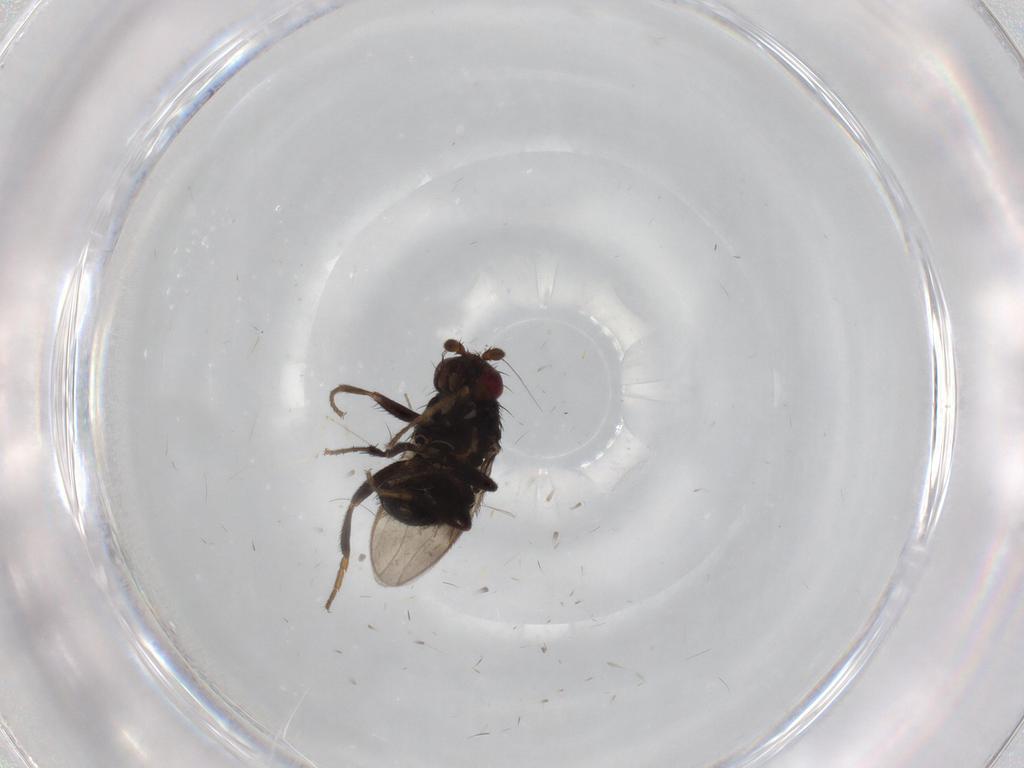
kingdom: Animalia
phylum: Arthropoda
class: Insecta
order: Diptera
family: Psychodidae
